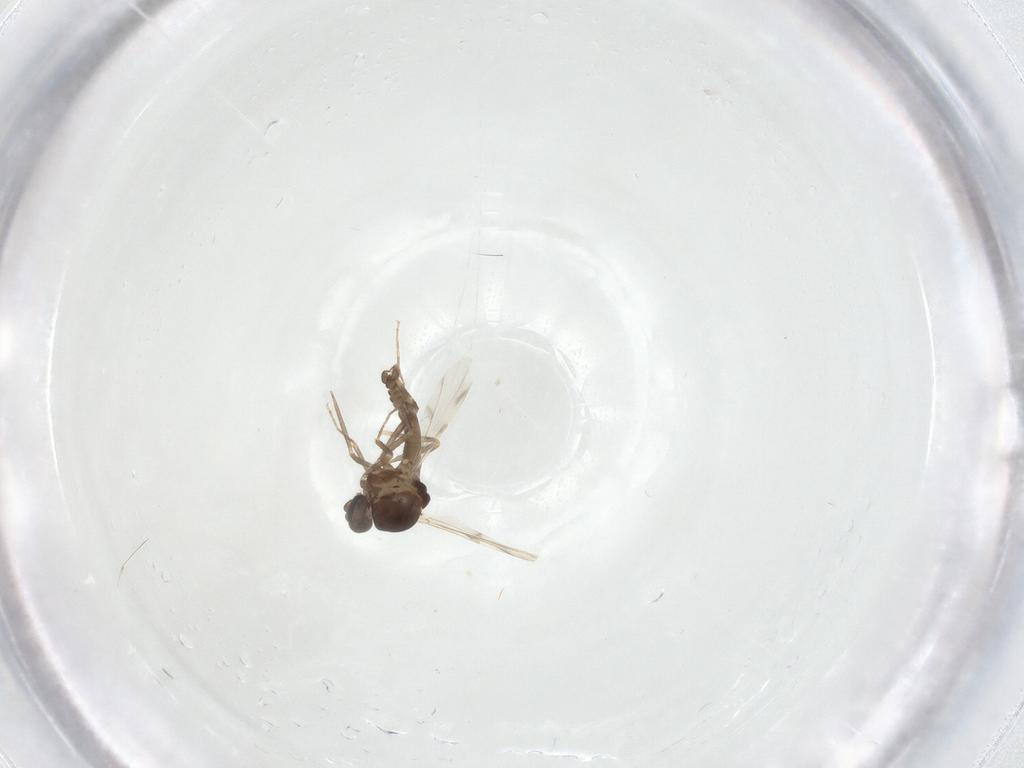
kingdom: Animalia
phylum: Arthropoda
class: Insecta
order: Diptera
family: Ceratopogonidae
